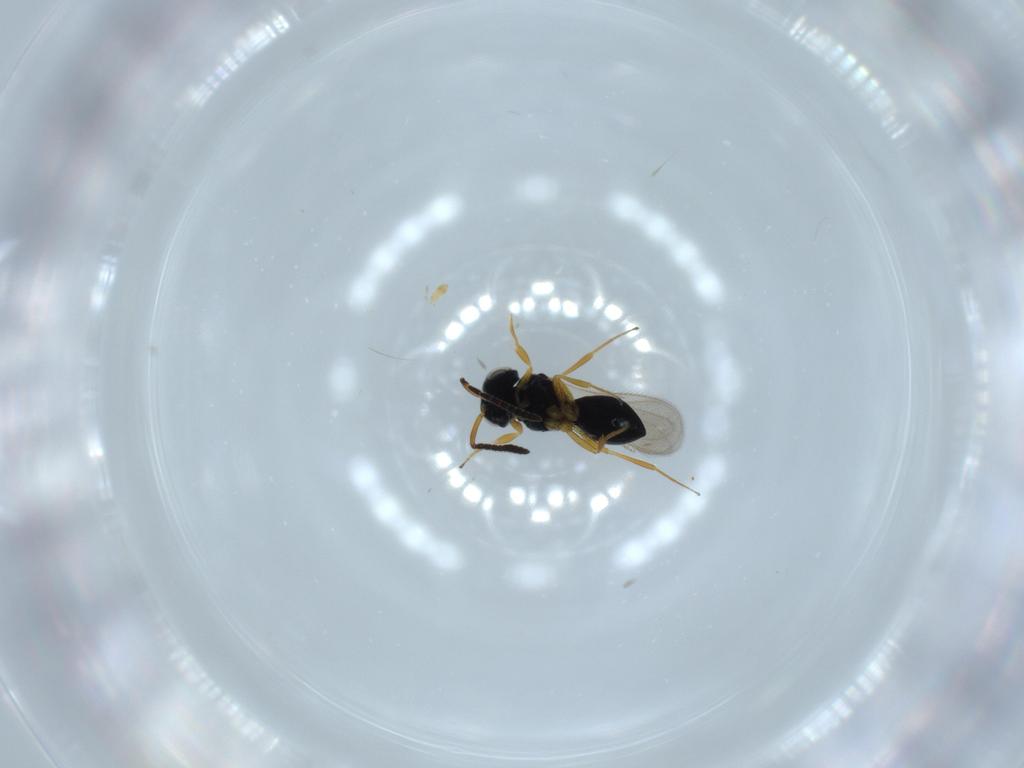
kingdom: Animalia
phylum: Arthropoda
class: Insecta
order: Hymenoptera
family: Scelionidae
